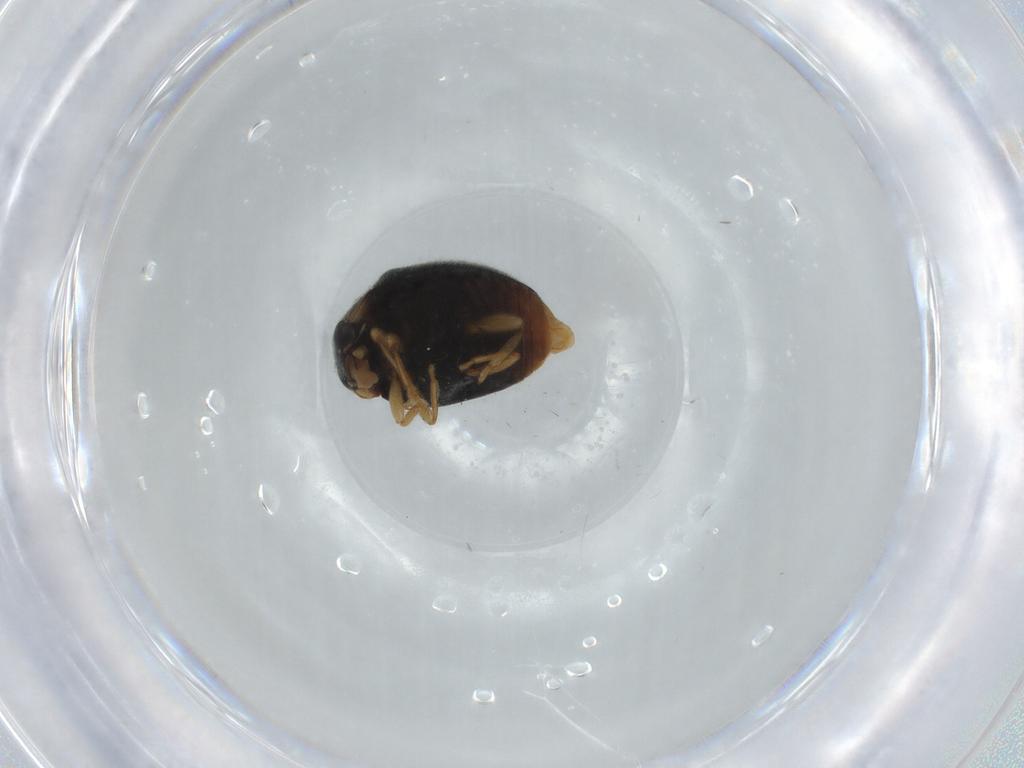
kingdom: Animalia
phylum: Arthropoda
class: Insecta
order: Coleoptera
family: Coccinellidae
